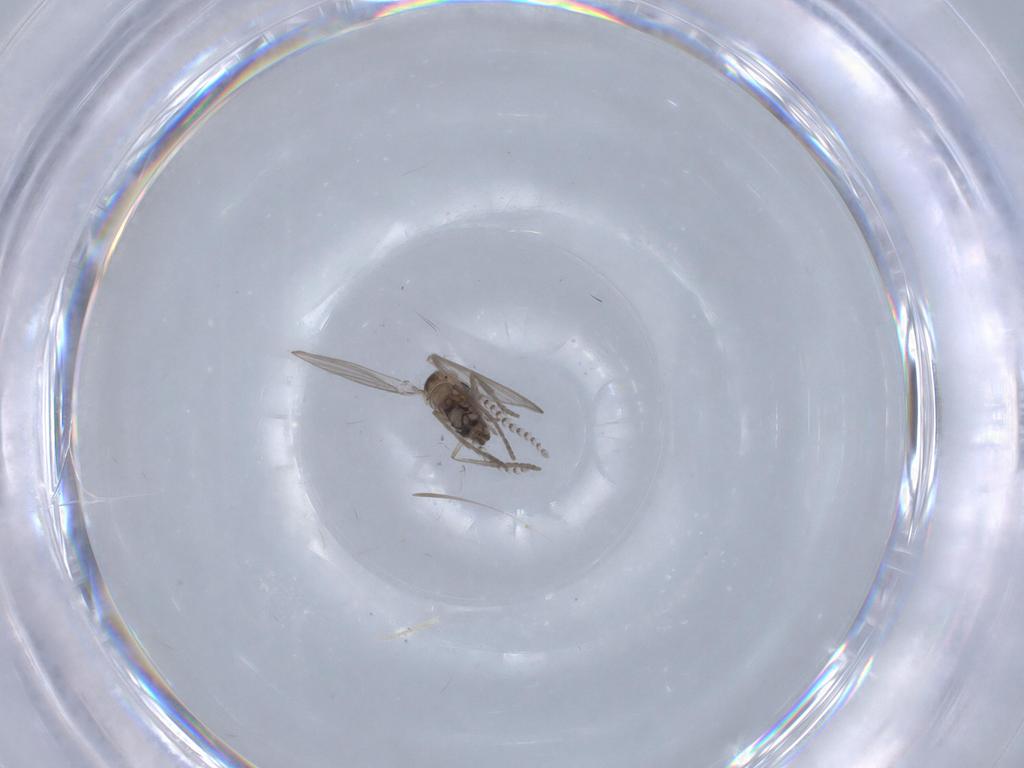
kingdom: Animalia
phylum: Arthropoda
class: Insecta
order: Diptera
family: Psychodidae
